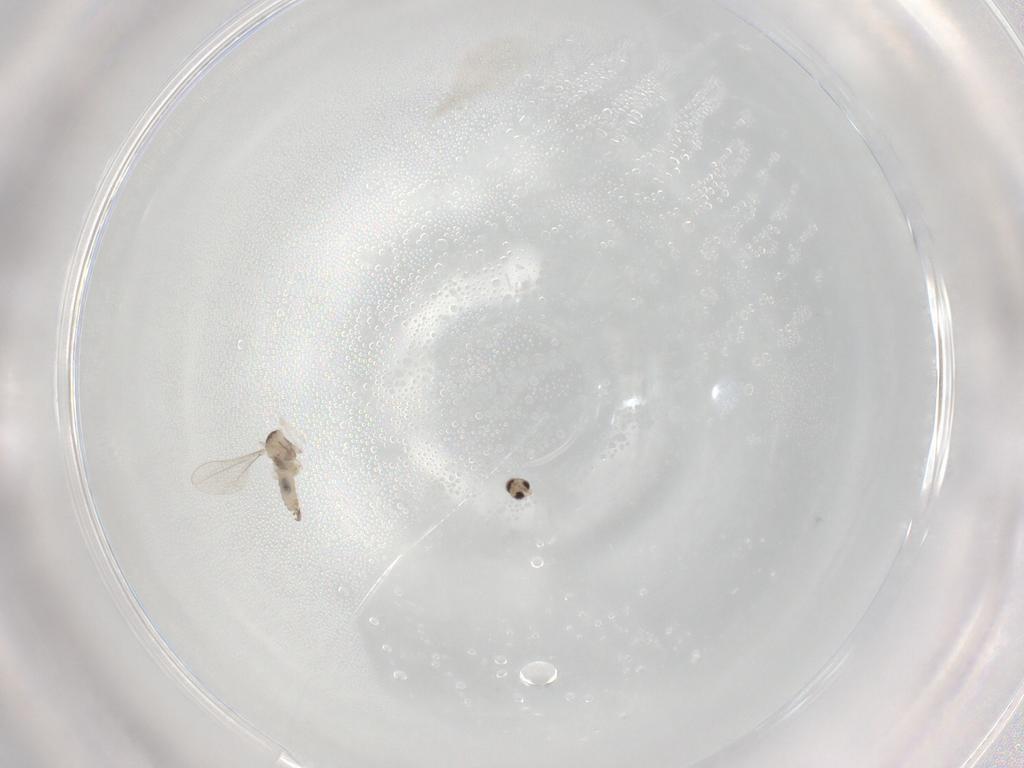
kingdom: Animalia
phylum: Arthropoda
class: Insecta
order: Diptera
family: Cecidomyiidae
